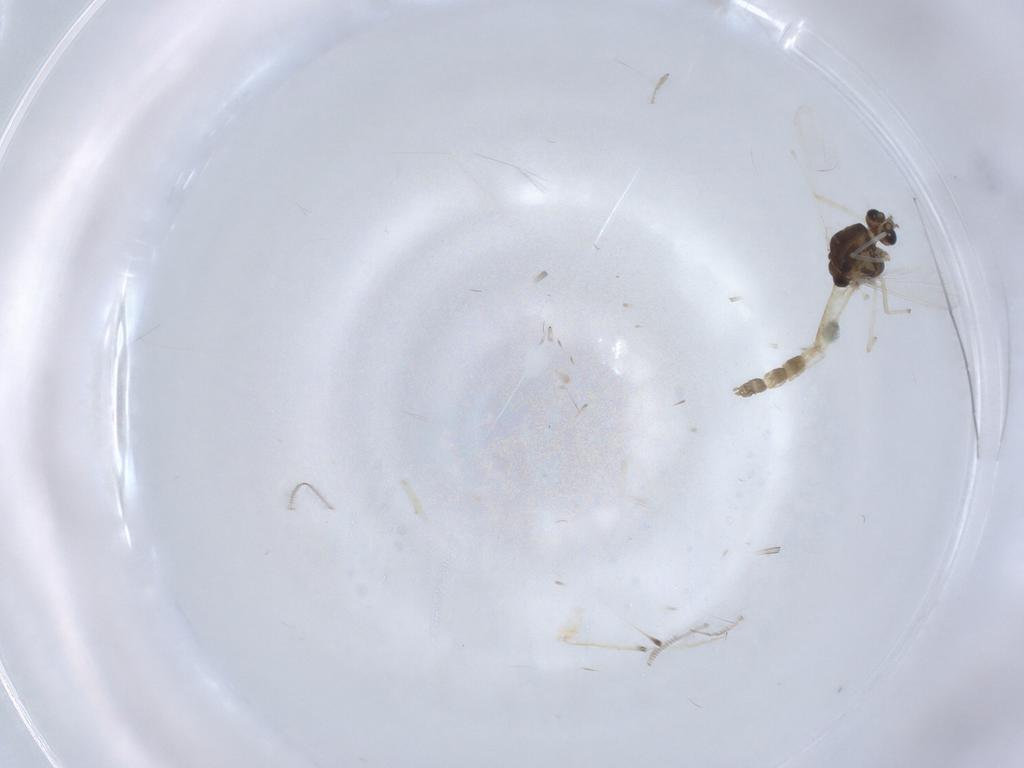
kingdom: Animalia
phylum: Arthropoda
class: Insecta
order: Diptera
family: Chironomidae
